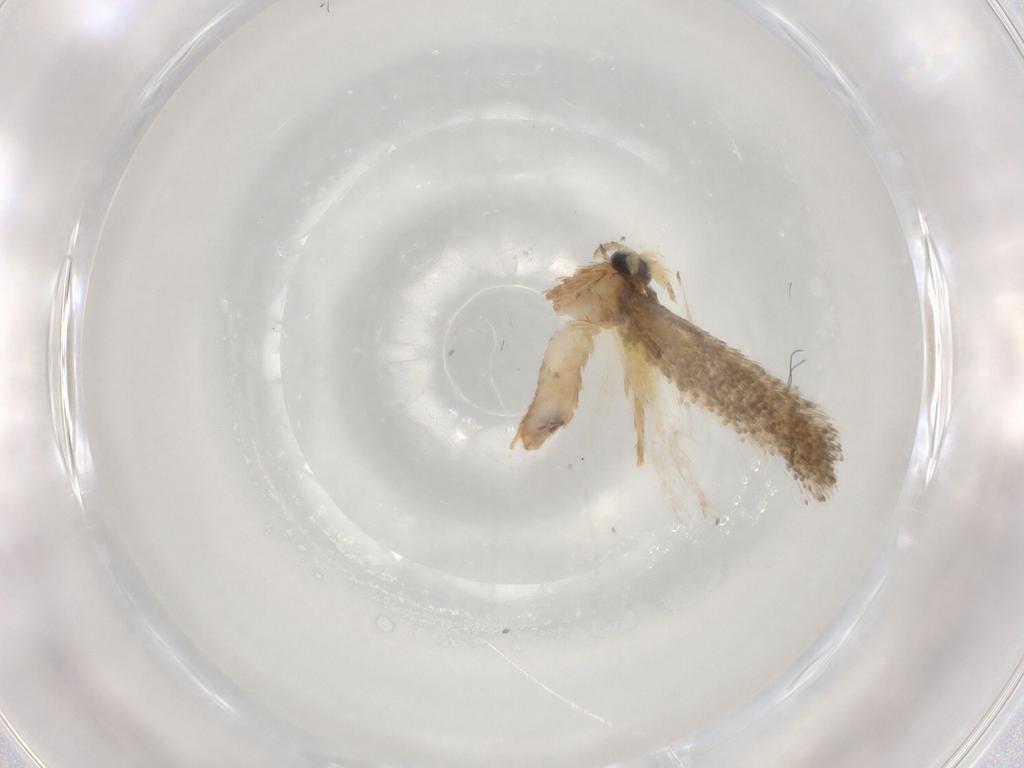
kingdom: Animalia
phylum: Arthropoda
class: Insecta
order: Lepidoptera
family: Nepticulidae
